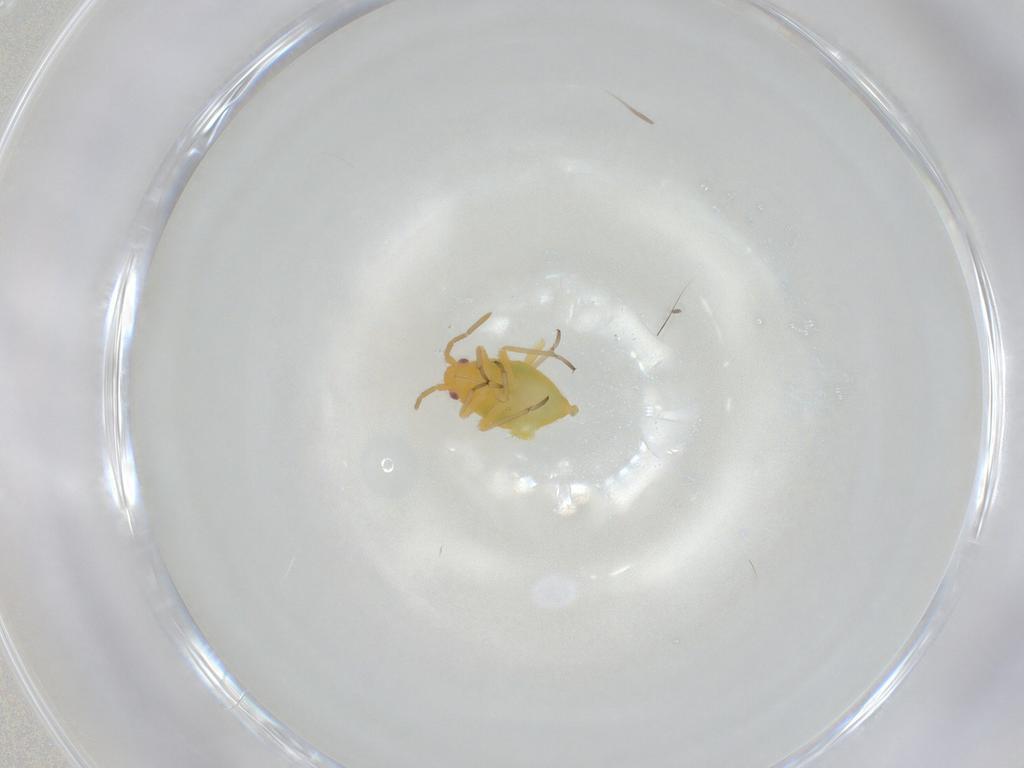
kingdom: Animalia
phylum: Arthropoda
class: Insecta
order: Hemiptera
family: Miridae
